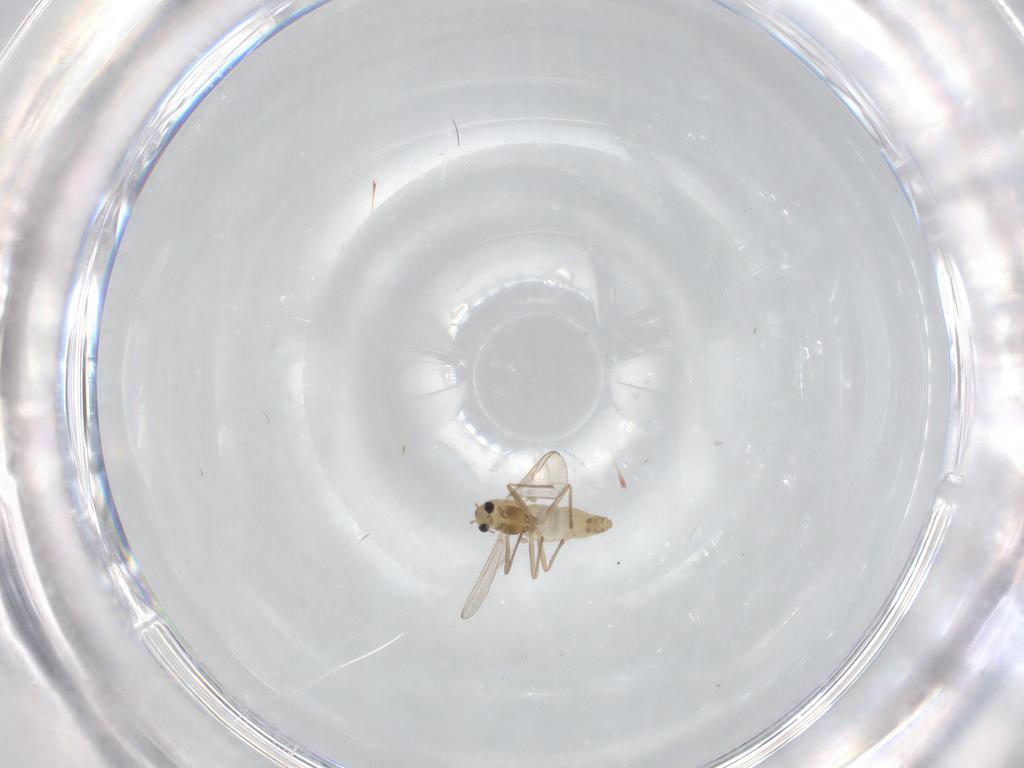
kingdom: Animalia
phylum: Arthropoda
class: Insecta
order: Diptera
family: Chironomidae
